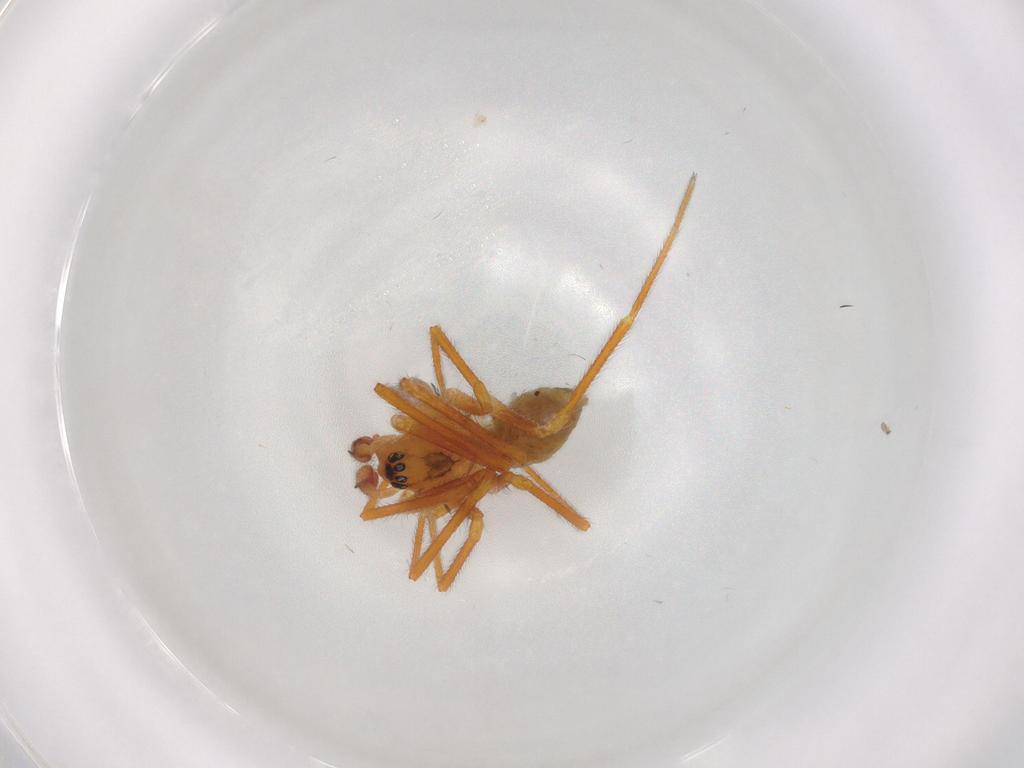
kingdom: Animalia
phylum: Arthropoda
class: Arachnida
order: Araneae
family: Linyphiidae
